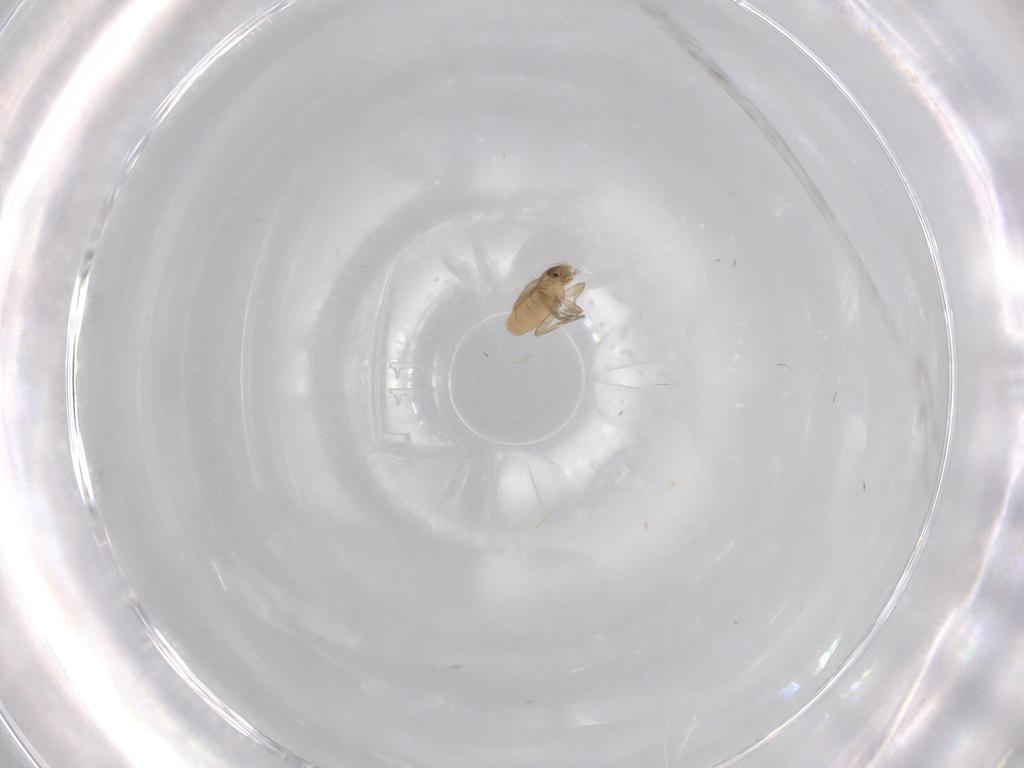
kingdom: Animalia
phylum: Arthropoda
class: Insecta
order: Diptera
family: Phoridae
